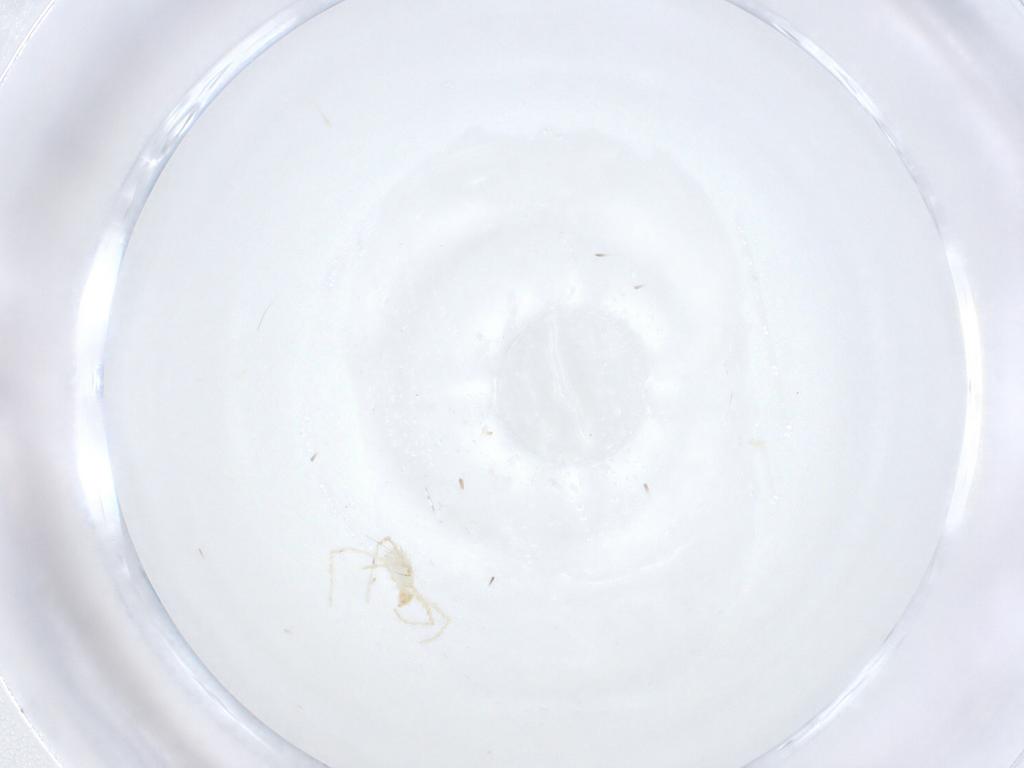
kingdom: Animalia
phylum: Arthropoda
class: Arachnida
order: Trombidiformes
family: Erythraeidae
